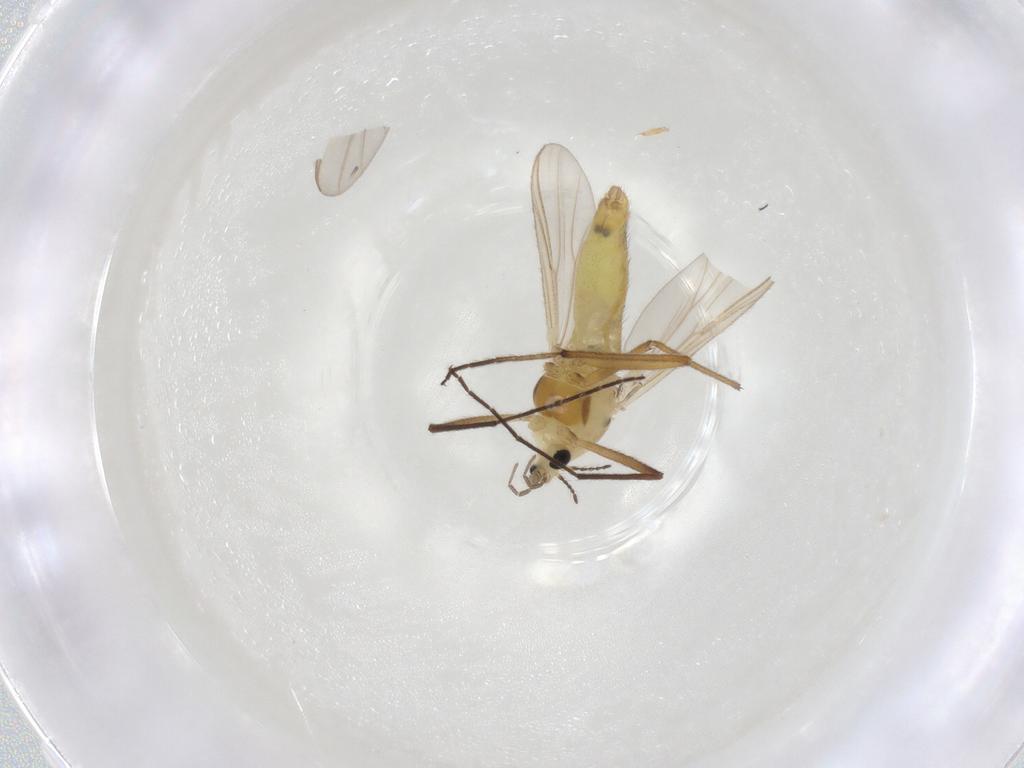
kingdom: Animalia
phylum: Arthropoda
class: Insecta
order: Diptera
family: Chironomidae
